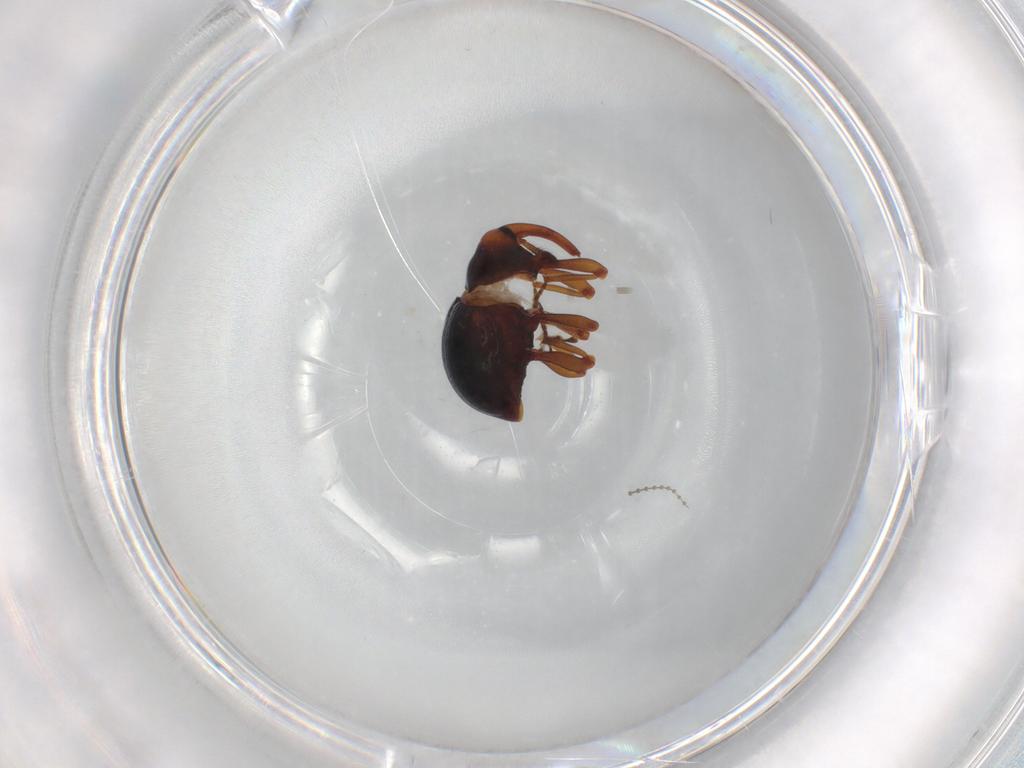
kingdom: Animalia
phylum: Arthropoda
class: Insecta
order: Coleoptera
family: Curculionidae
